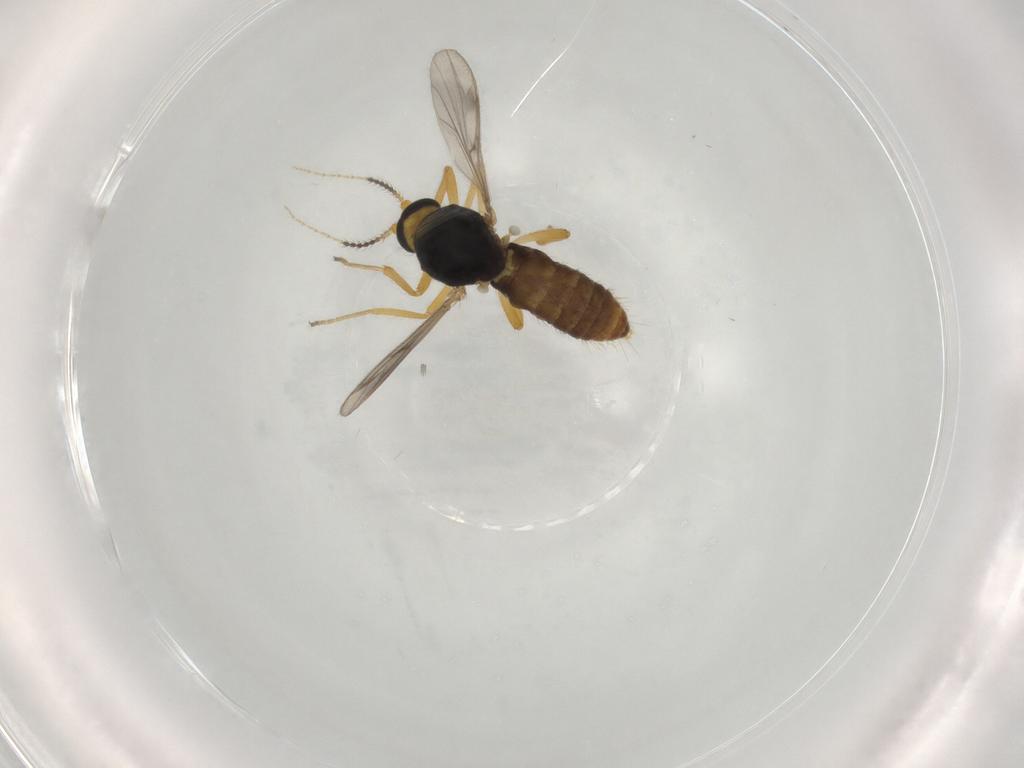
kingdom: Animalia
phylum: Arthropoda
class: Insecta
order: Diptera
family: Ceratopogonidae
